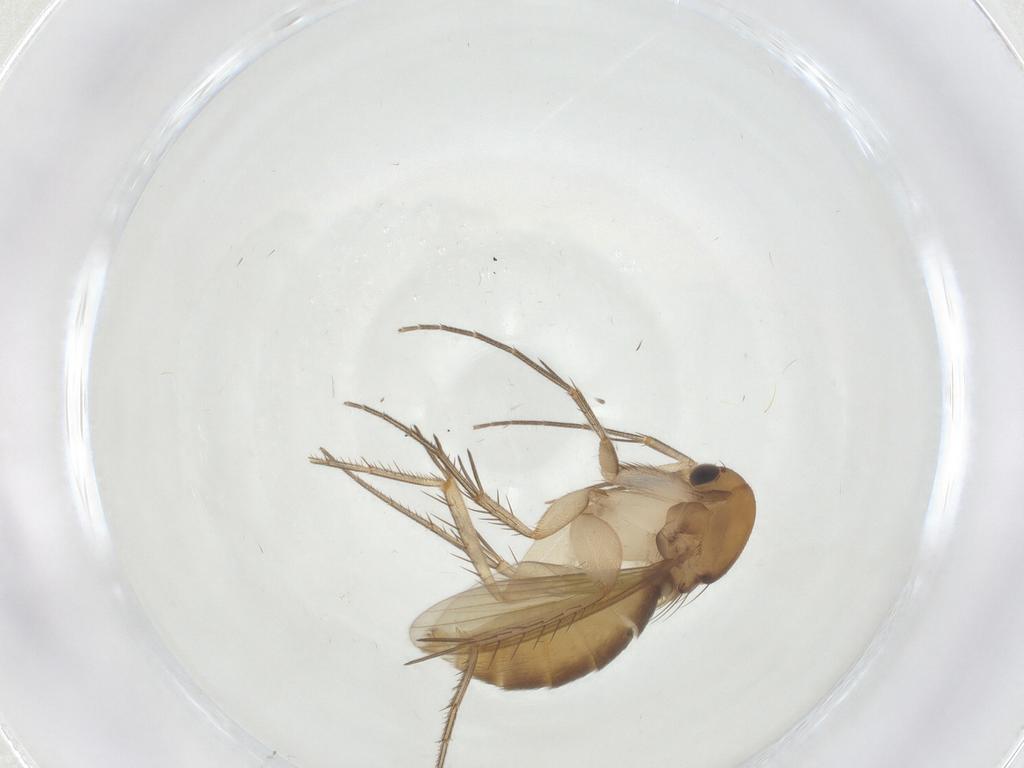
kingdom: Animalia
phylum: Arthropoda
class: Insecta
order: Diptera
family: Mycetophilidae
